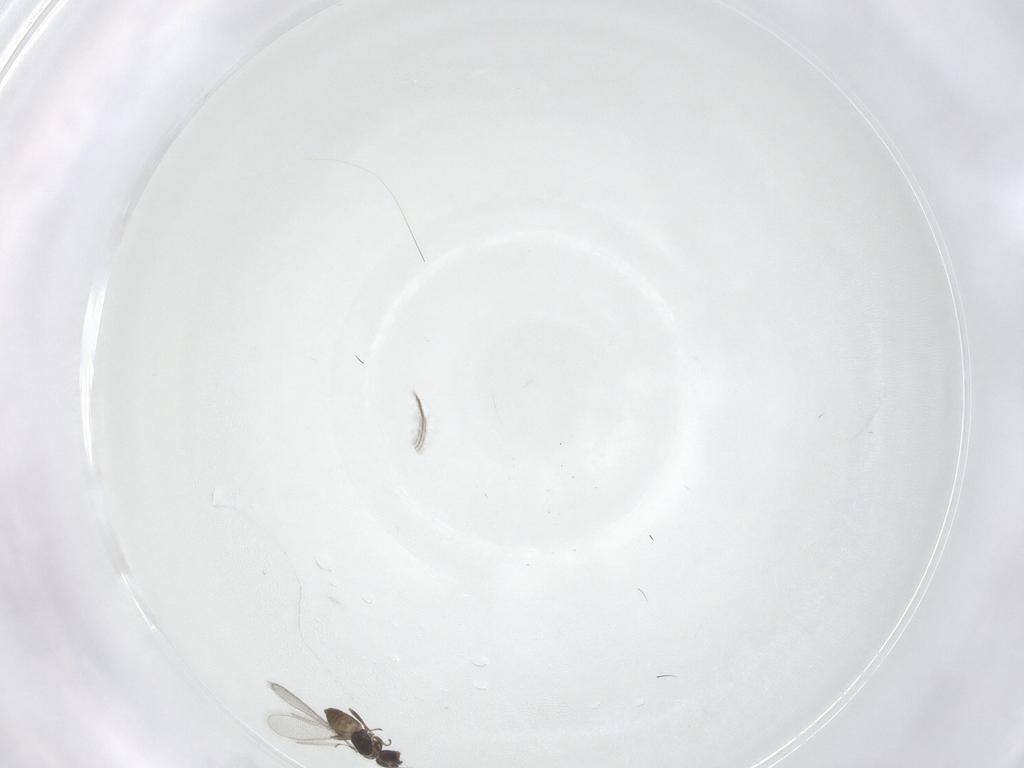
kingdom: Animalia
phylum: Arthropoda
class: Insecta
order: Hymenoptera
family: Mymaridae
